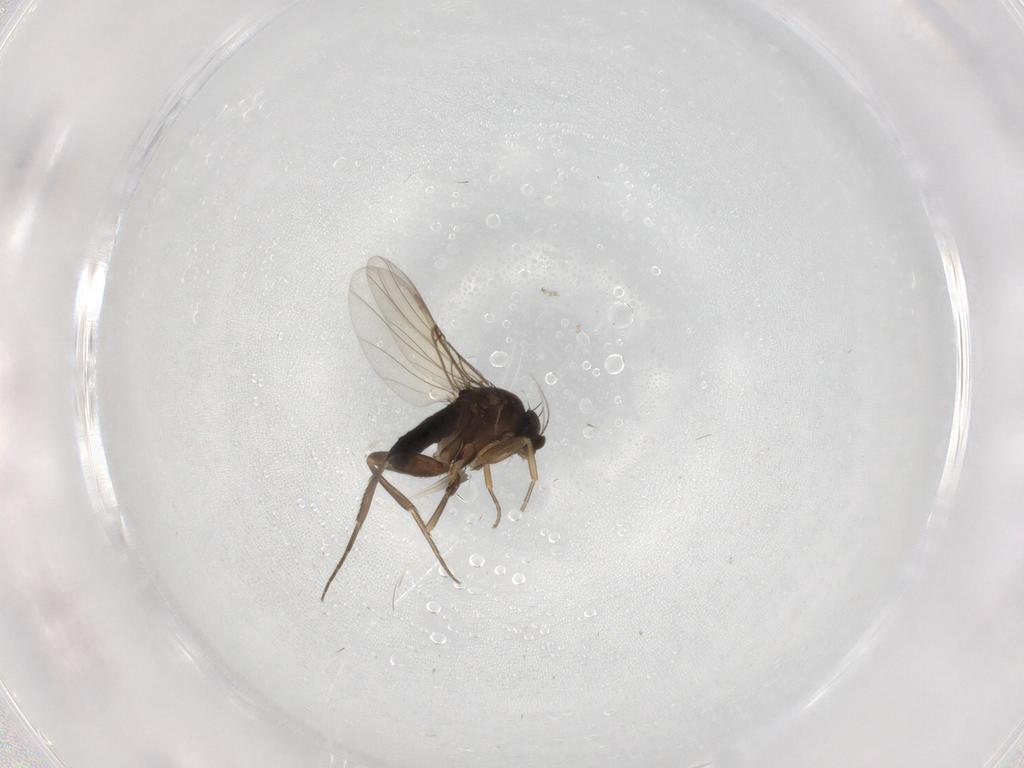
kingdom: Animalia
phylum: Arthropoda
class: Insecta
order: Diptera
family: Phoridae
